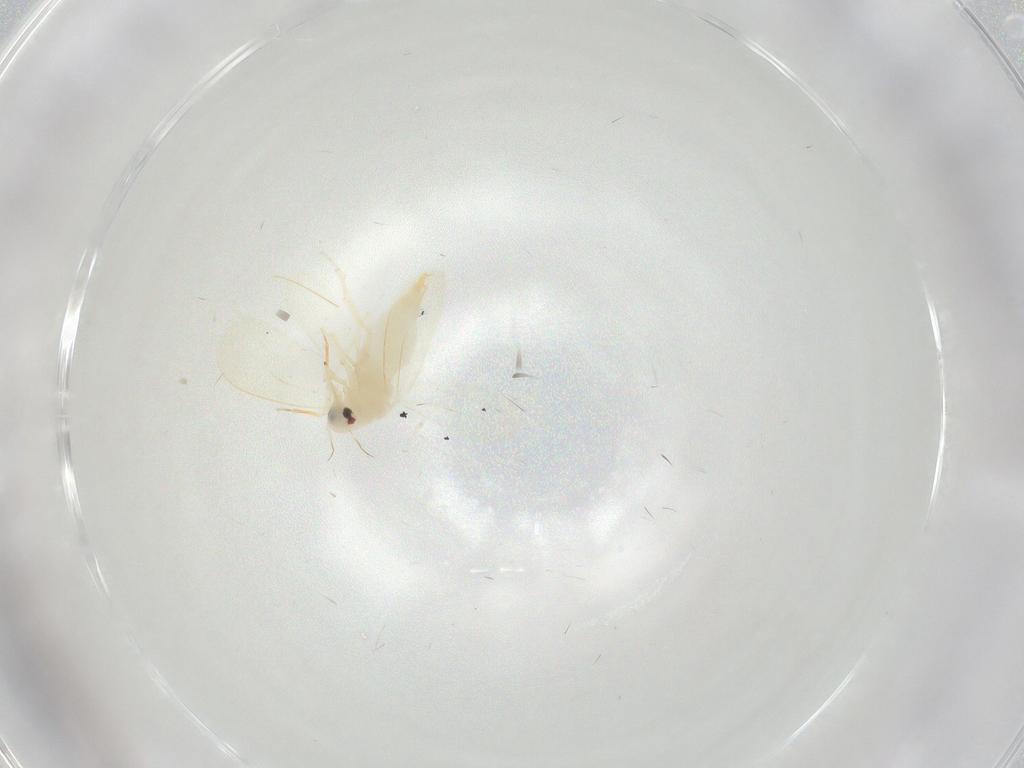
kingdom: Animalia
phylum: Arthropoda
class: Insecta
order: Hemiptera
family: Aleyrodidae
